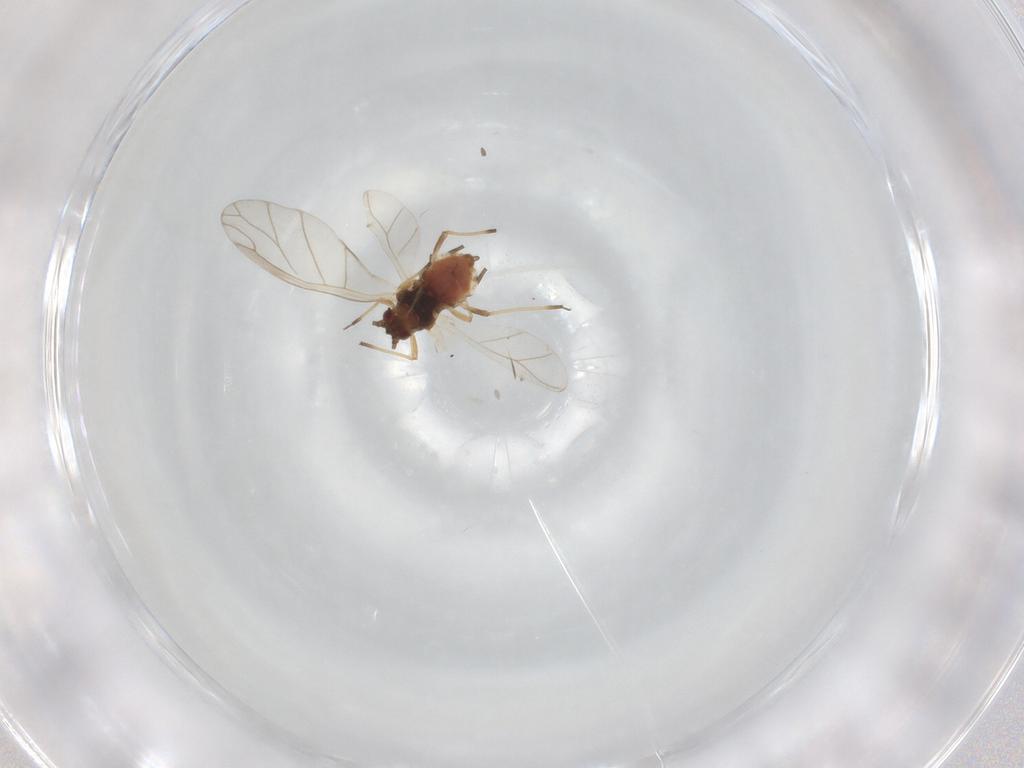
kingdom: Animalia
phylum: Arthropoda
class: Insecta
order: Hemiptera
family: Aphididae
